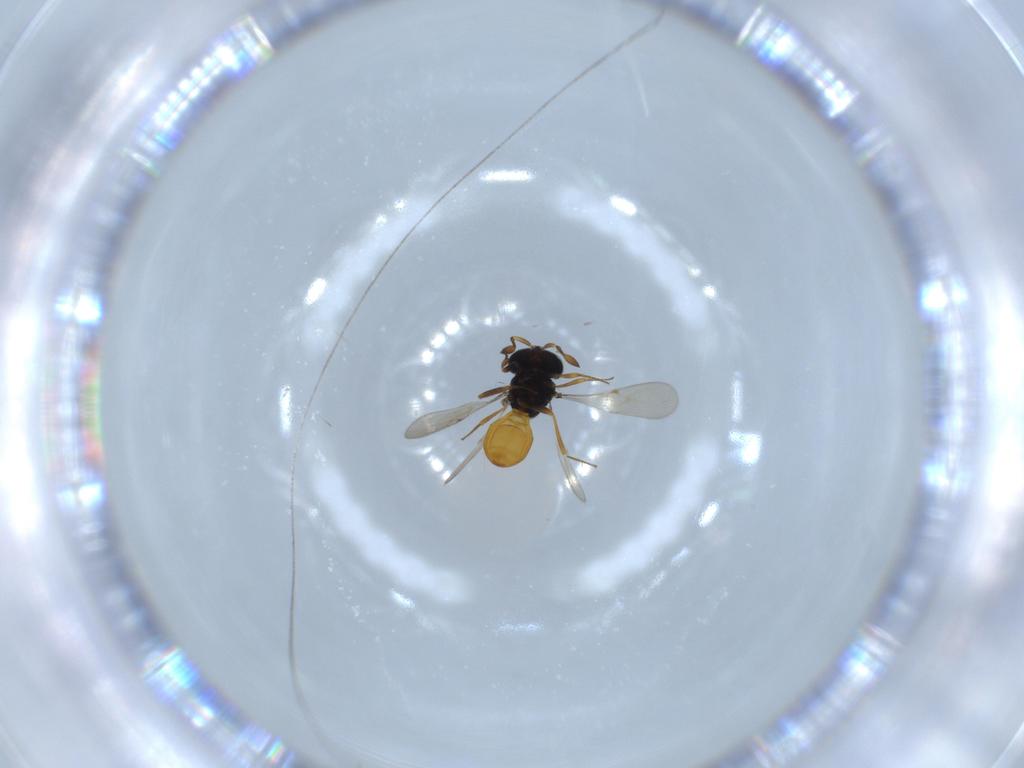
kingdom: Animalia
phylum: Arthropoda
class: Insecta
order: Hymenoptera
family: Scelionidae
